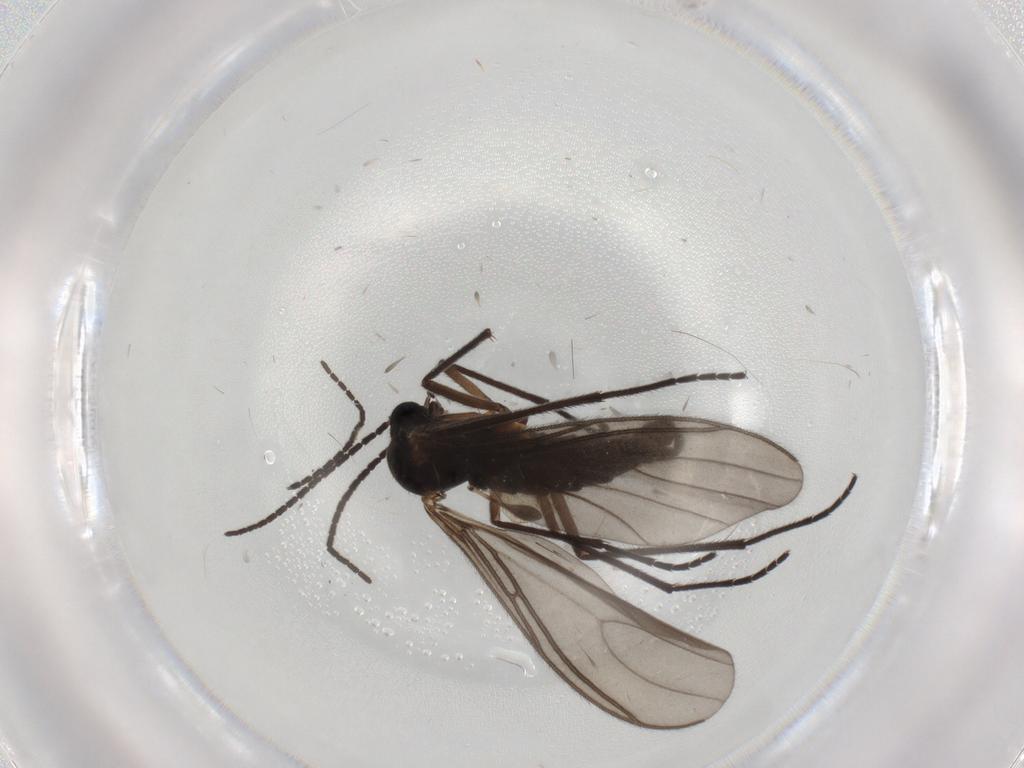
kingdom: Animalia
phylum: Arthropoda
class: Insecta
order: Diptera
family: Sciaridae
